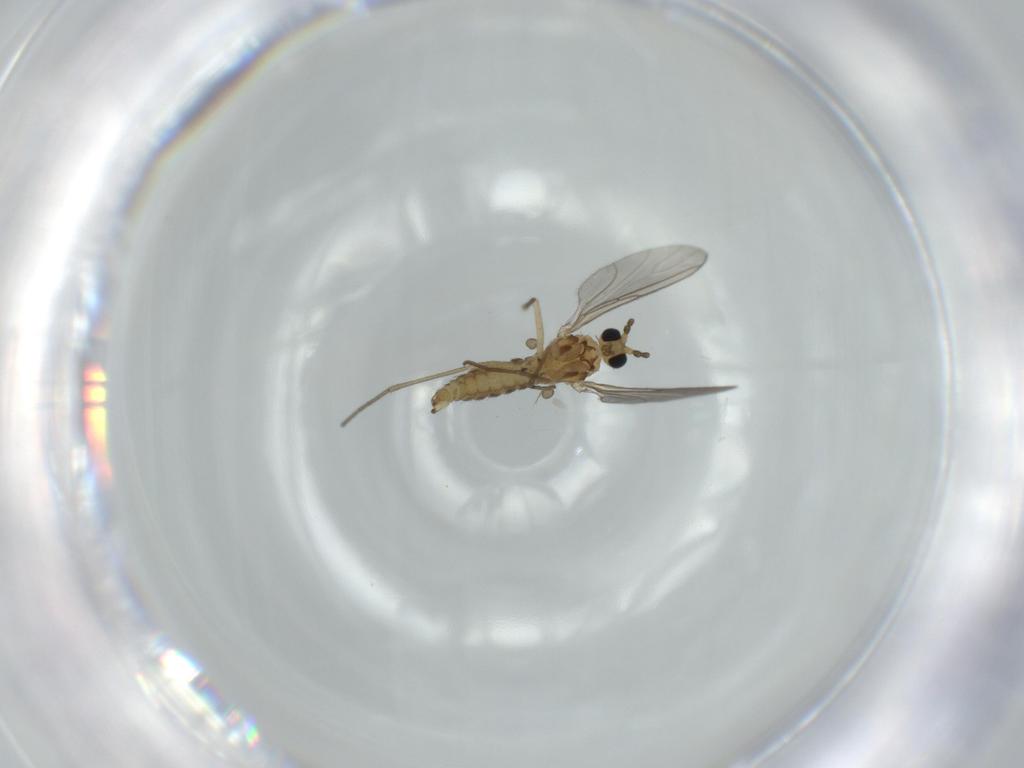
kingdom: Animalia
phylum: Arthropoda
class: Insecta
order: Diptera
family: Sciaridae
